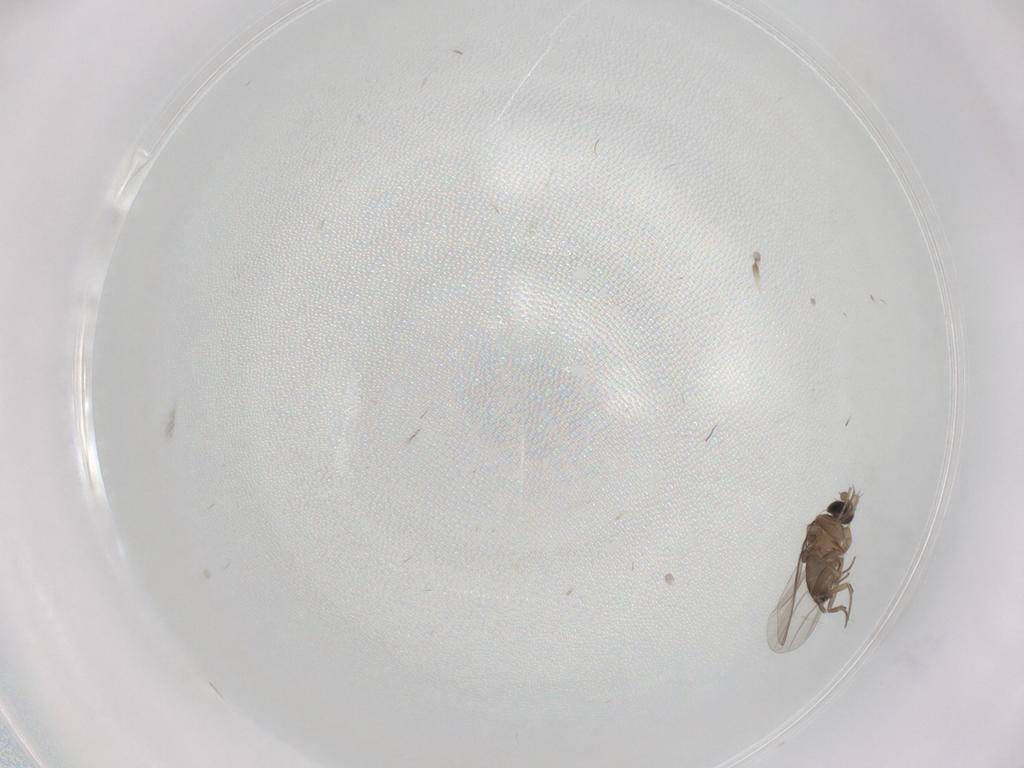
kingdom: Animalia
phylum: Arthropoda
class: Insecta
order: Diptera
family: Phoridae
